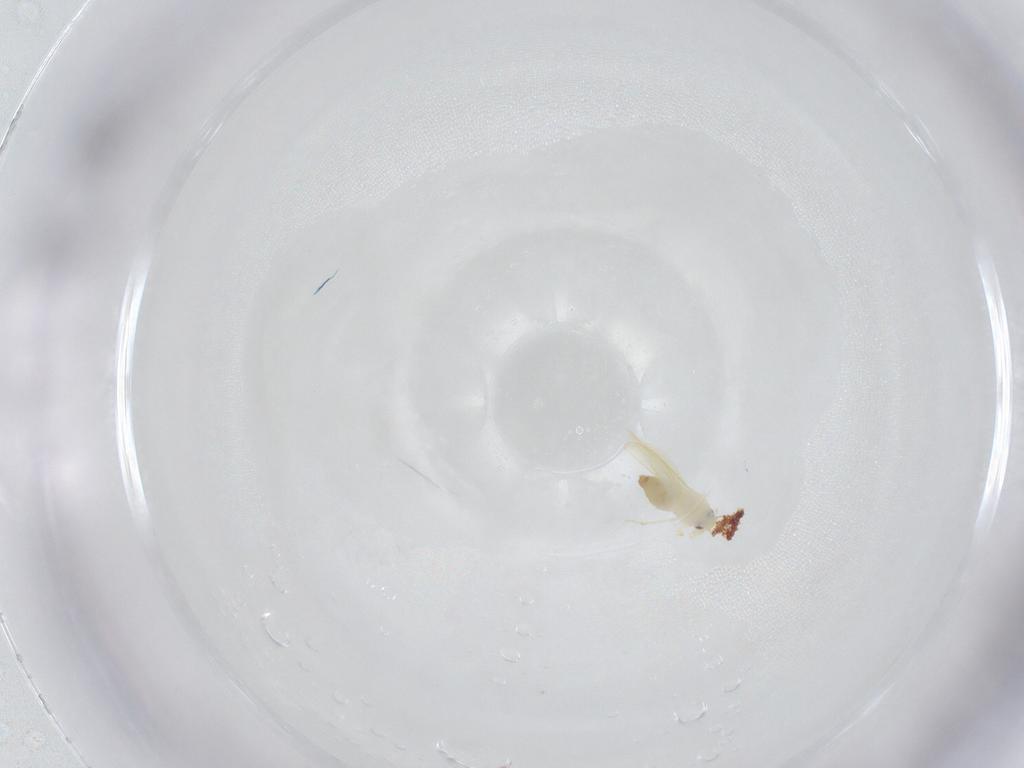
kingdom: Animalia
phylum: Arthropoda
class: Insecta
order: Hemiptera
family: Aleyrodidae
